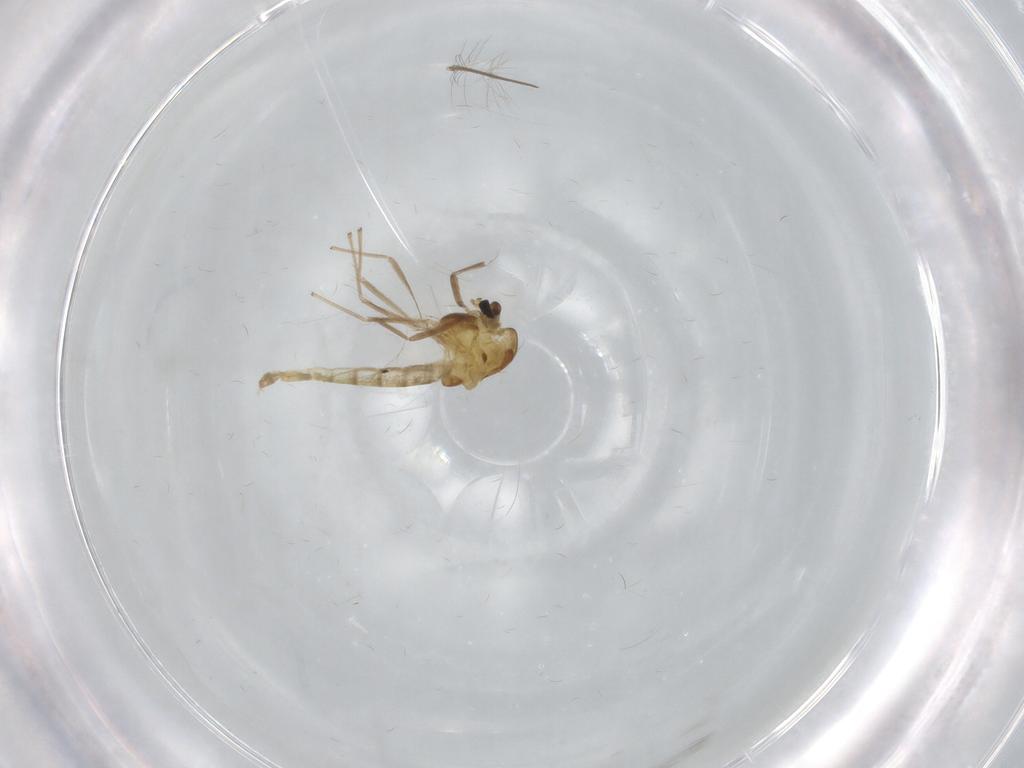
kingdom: Animalia
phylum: Arthropoda
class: Insecta
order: Diptera
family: Chironomidae
